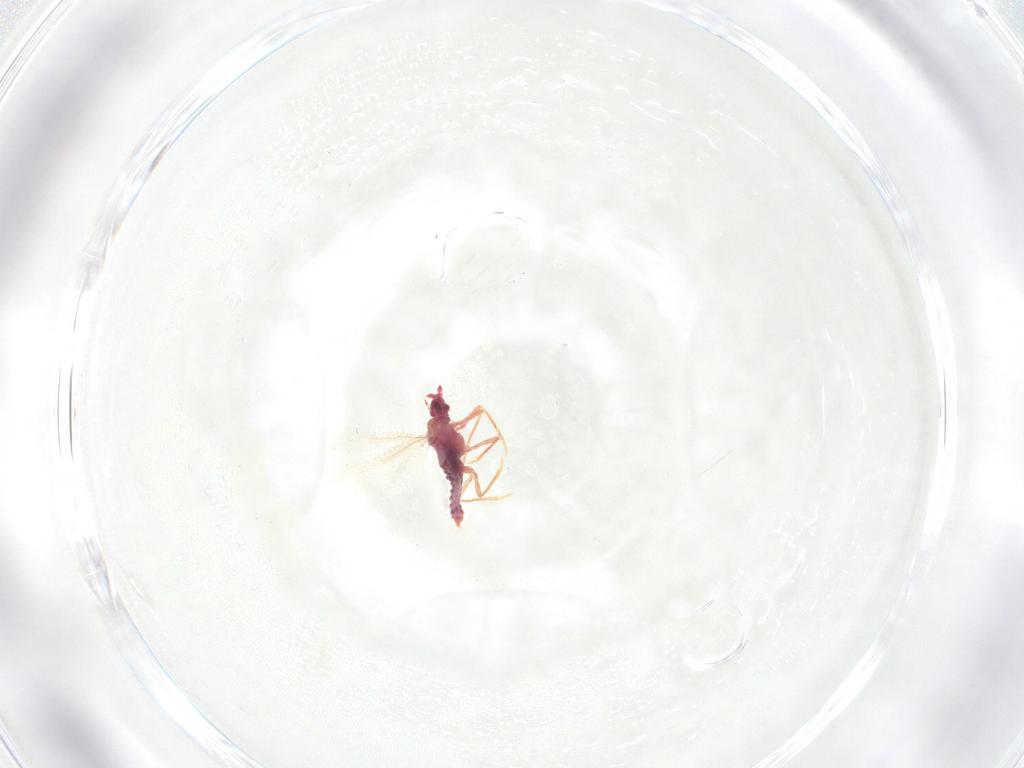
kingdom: Animalia
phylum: Arthropoda
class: Insecta
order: Hemiptera
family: Coccoidea_incertae_sedis
